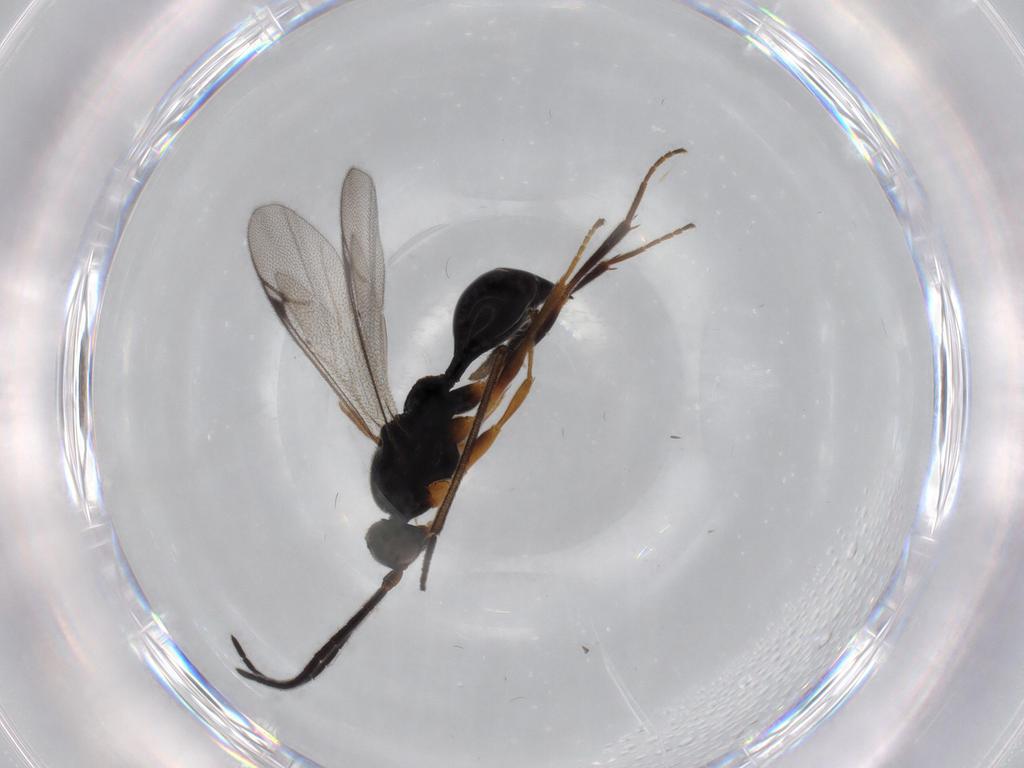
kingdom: Animalia
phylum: Arthropoda
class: Insecta
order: Hymenoptera
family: Proctotrupidae
